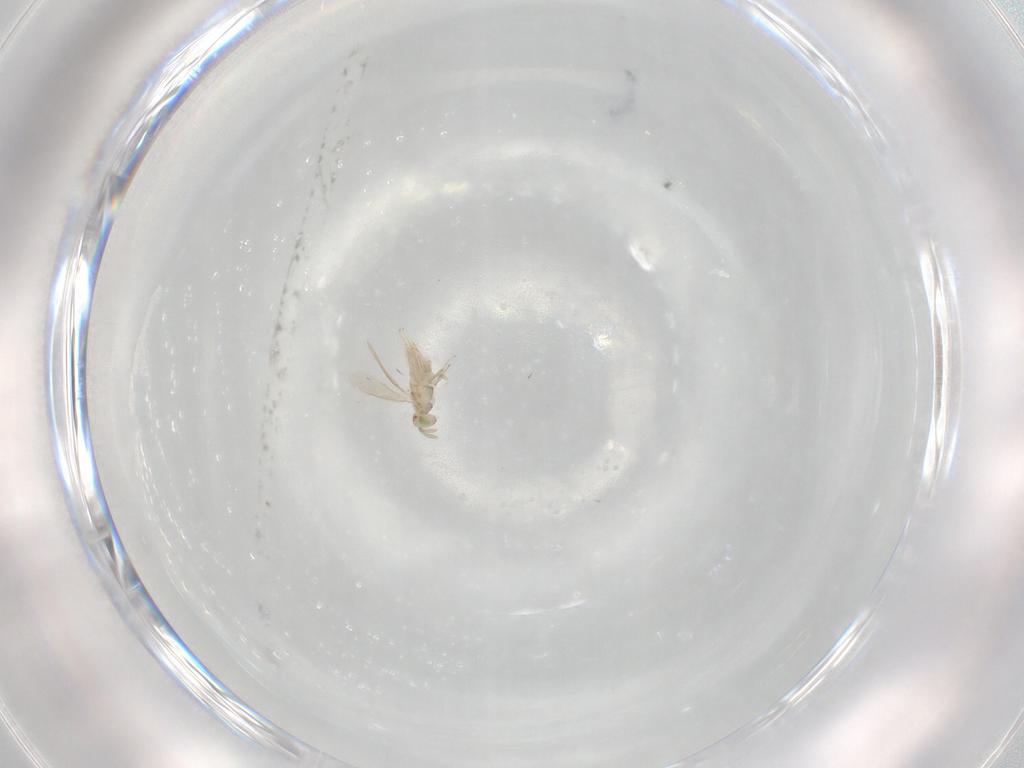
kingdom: Animalia
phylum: Arthropoda
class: Insecta
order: Hymenoptera
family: Aphelinidae
